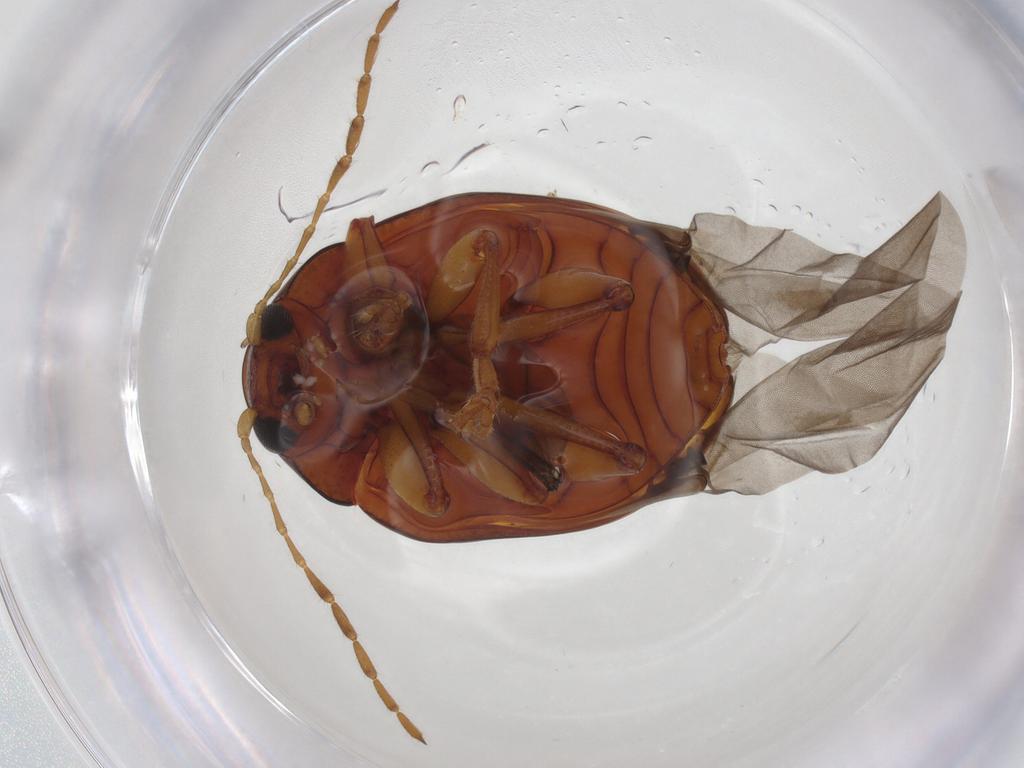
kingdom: Animalia
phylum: Arthropoda
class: Insecta
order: Coleoptera
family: Chrysomelidae
